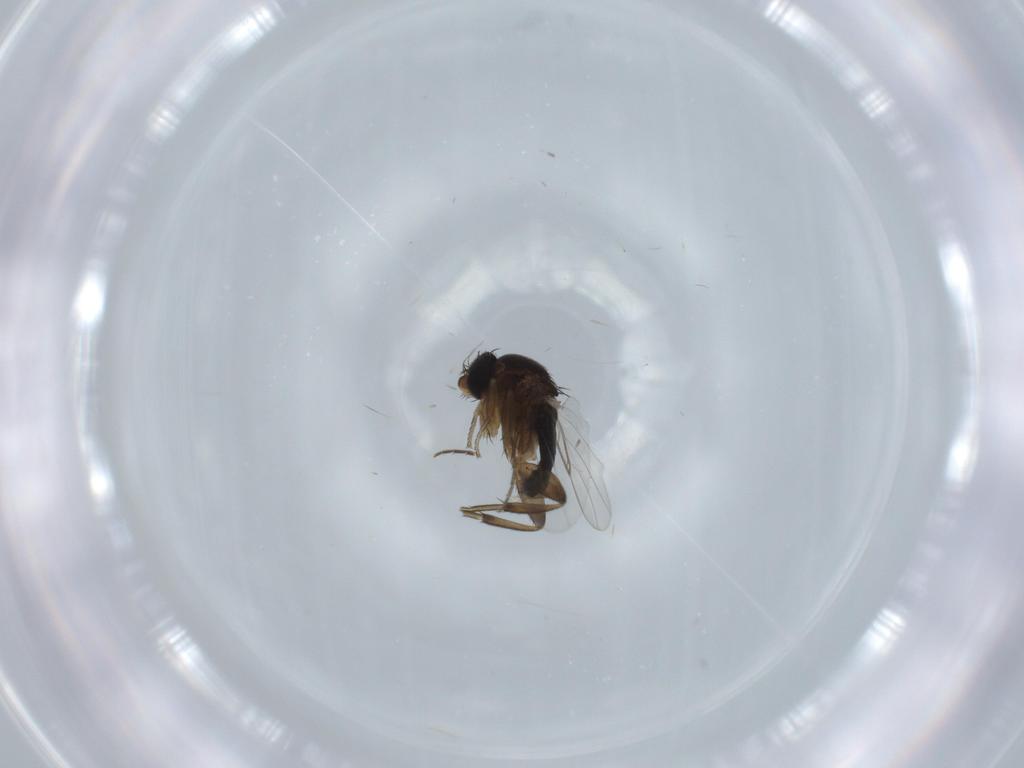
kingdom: Animalia
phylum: Arthropoda
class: Insecta
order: Diptera
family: Phoridae
